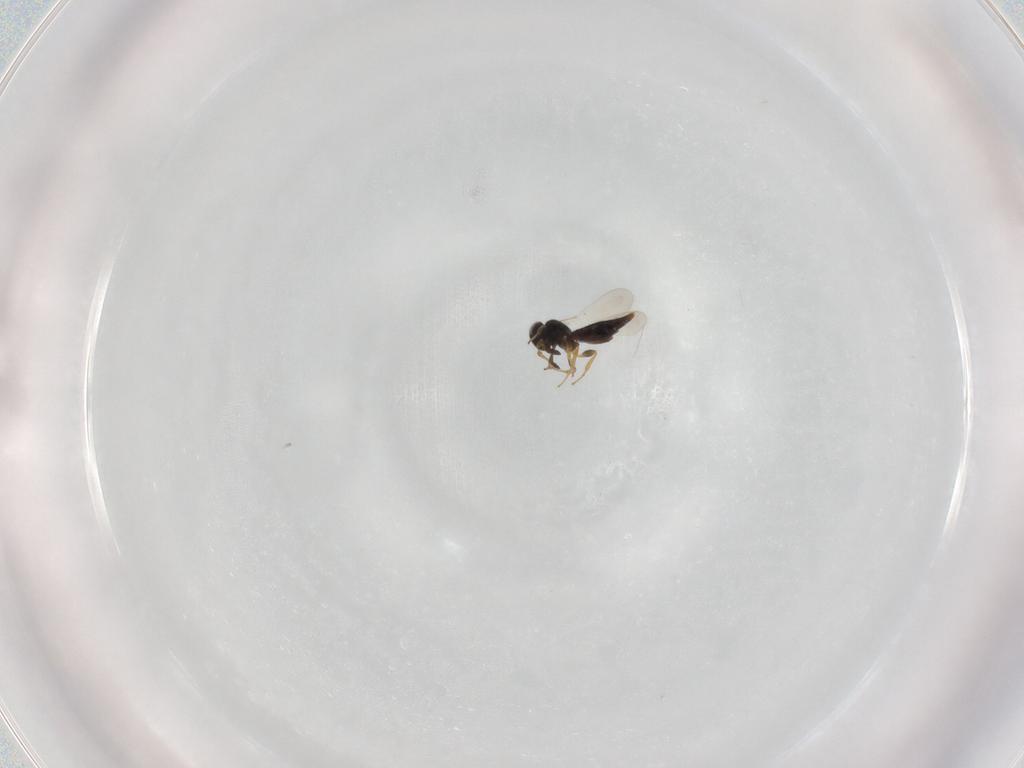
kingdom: Animalia
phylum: Arthropoda
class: Insecta
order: Hymenoptera
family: Platygastridae
